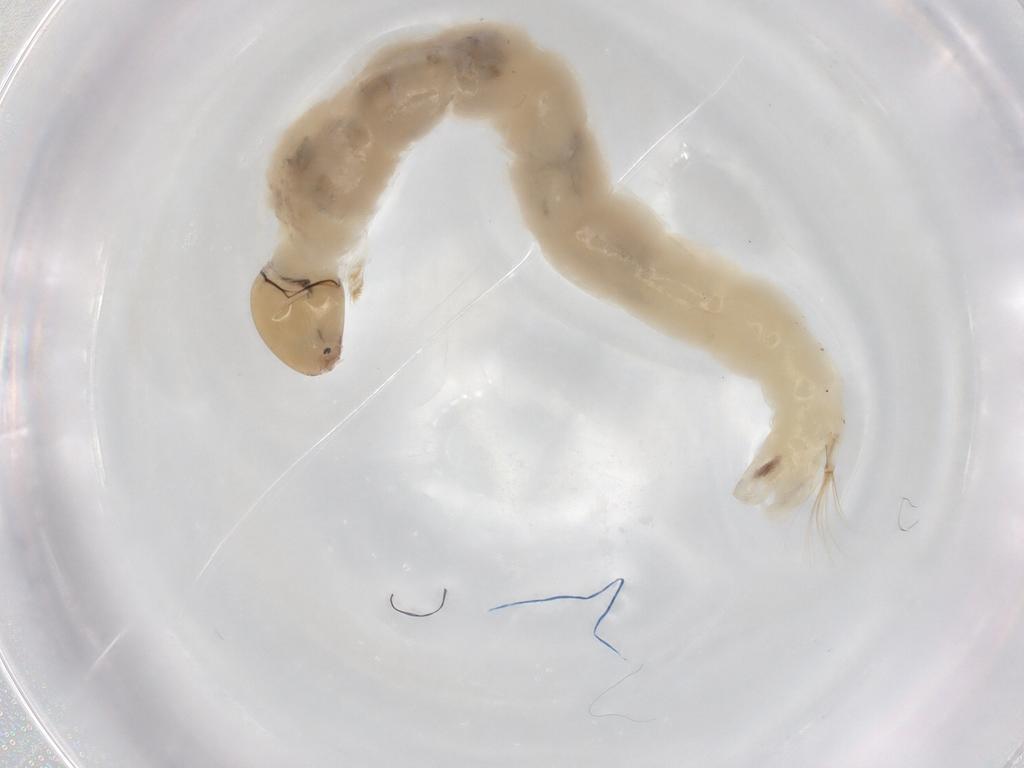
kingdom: Animalia
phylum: Arthropoda
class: Insecta
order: Diptera
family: Chironomidae
